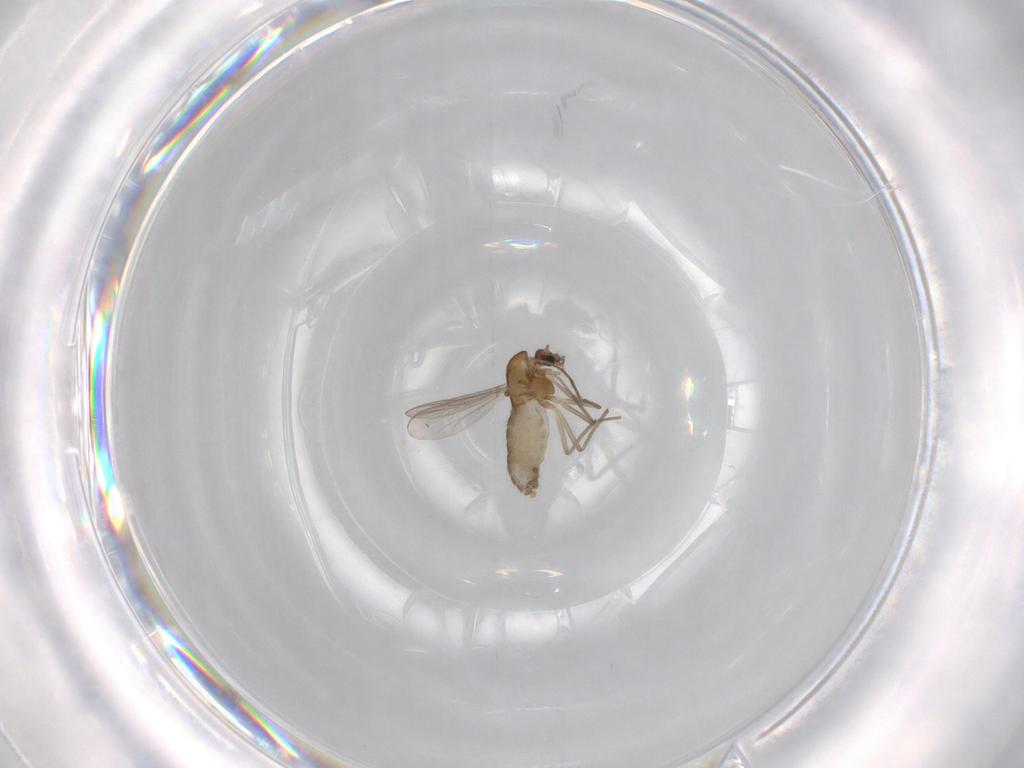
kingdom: Animalia
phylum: Arthropoda
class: Insecta
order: Diptera
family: Chironomidae
